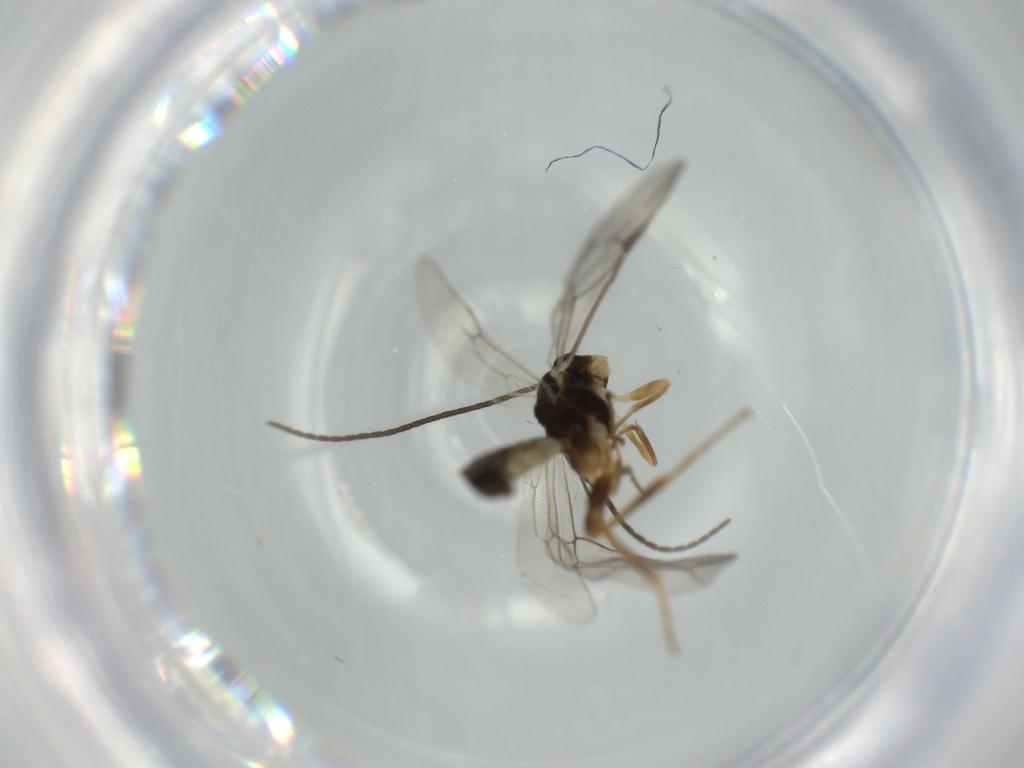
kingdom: Animalia
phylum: Arthropoda
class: Insecta
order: Hymenoptera
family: Ichneumonidae
